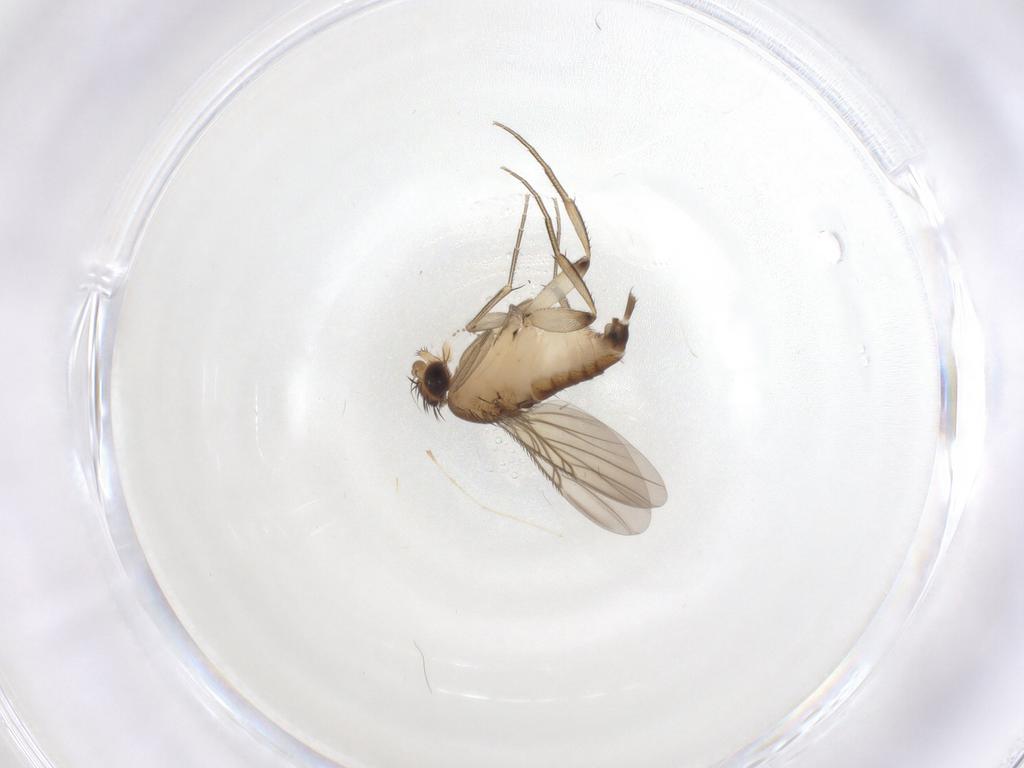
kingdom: Animalia
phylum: Arthropoda
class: Insecta
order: Diptera
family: Phoridae
